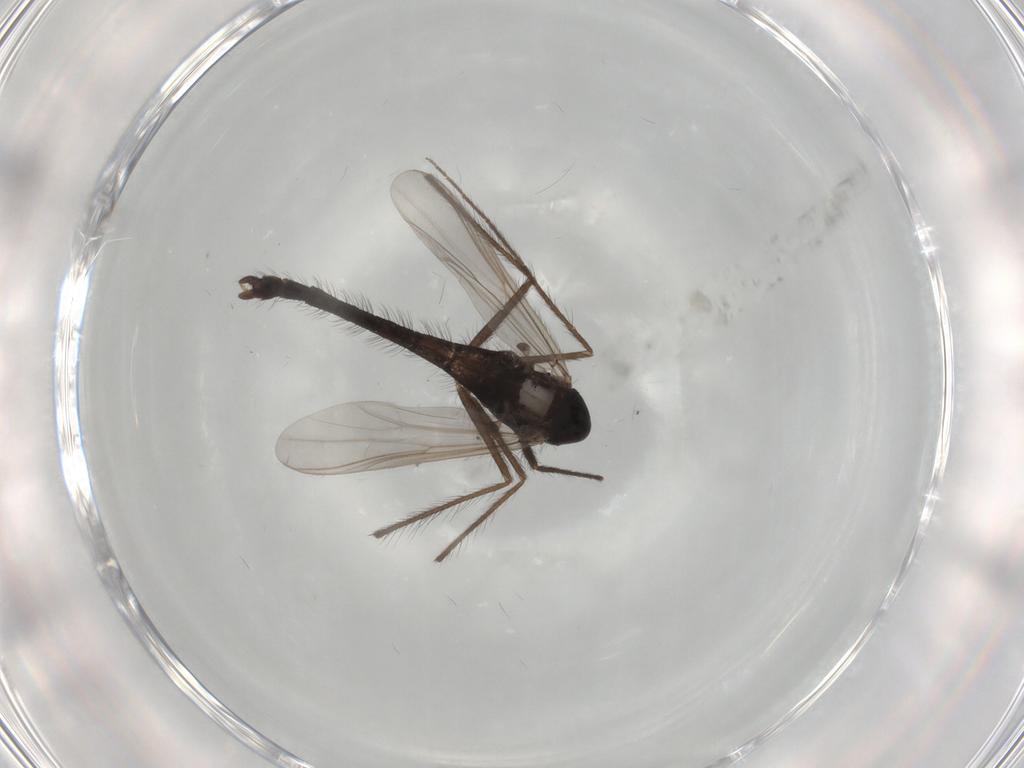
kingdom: Animalia
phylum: Arthropoda
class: Insecta
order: Diptera
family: Chironomidae
